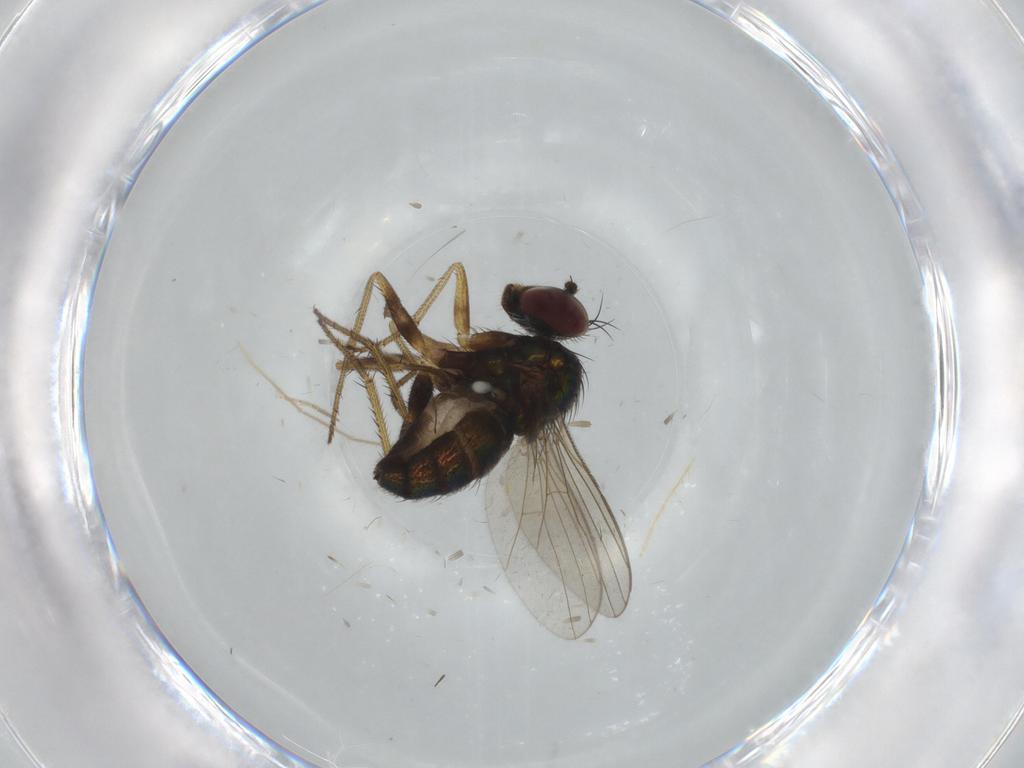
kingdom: Animalia
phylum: Arthropoda
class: Insecta
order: Diptera
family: Chironomidae
